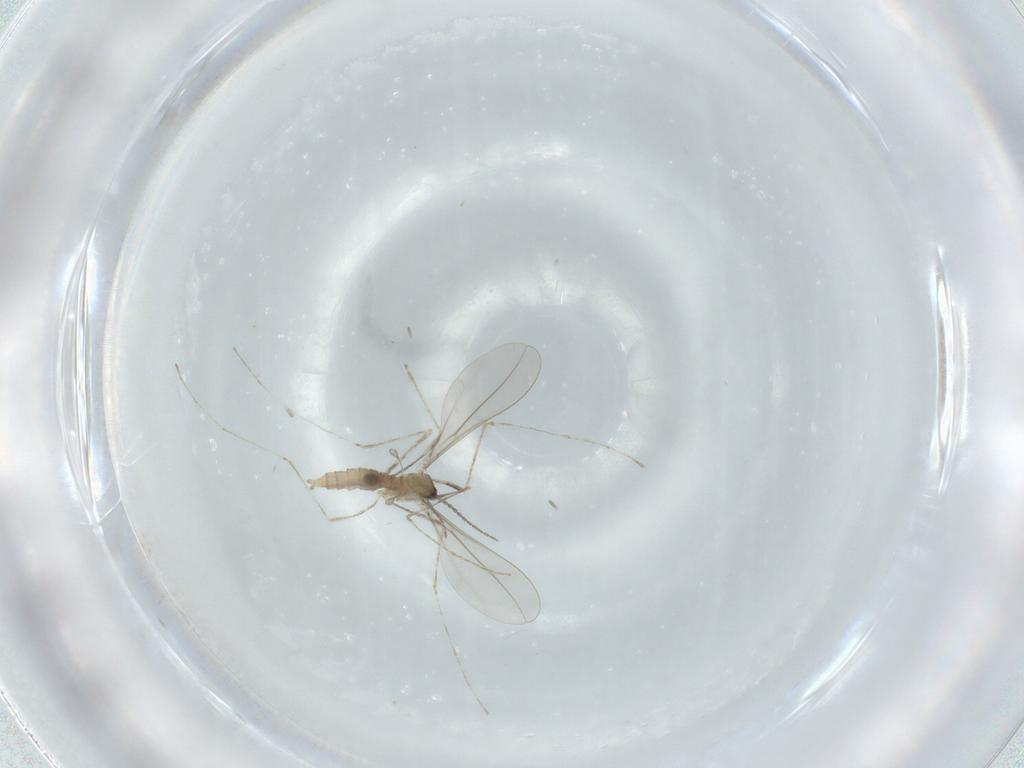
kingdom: Animalia
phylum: Arthropoda
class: Insecta
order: Diptera
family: Cecidomyiidae
